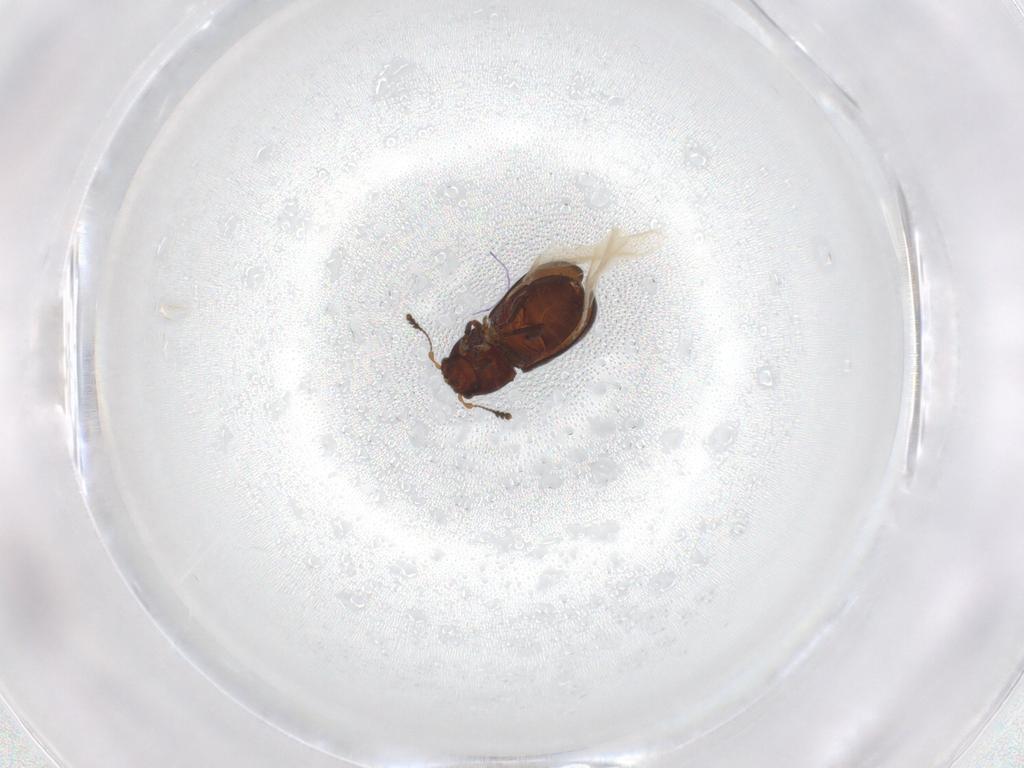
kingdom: Animalia
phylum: Arthropoda
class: Insecta
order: Coleoptera
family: Anthribidae
